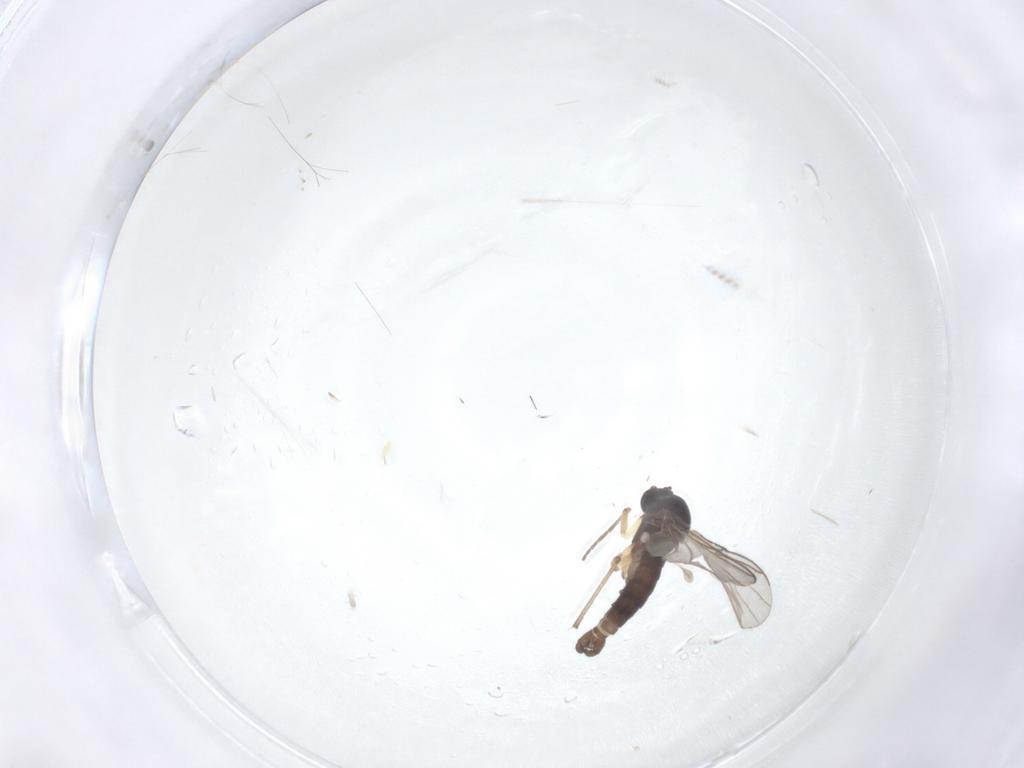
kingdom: Animalia
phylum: Arthropoda
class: Insecta
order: Diptera
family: Sciaridae
